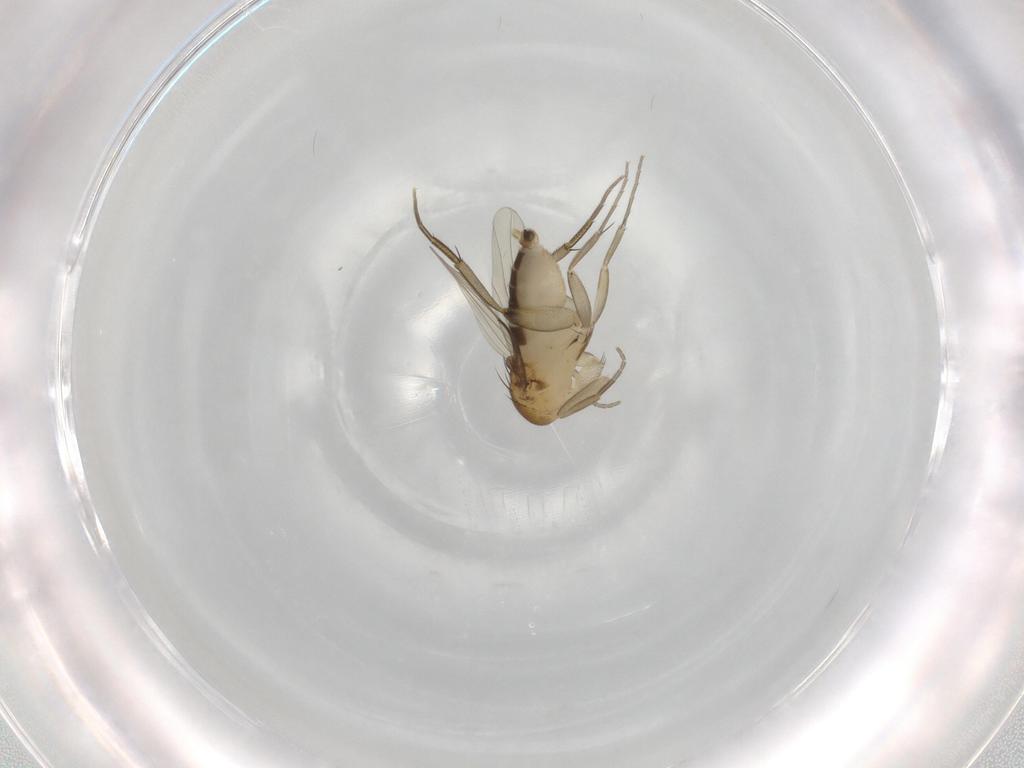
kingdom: Animalia
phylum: Arthropoda
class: Insecta
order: Diptera
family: Phoridae
